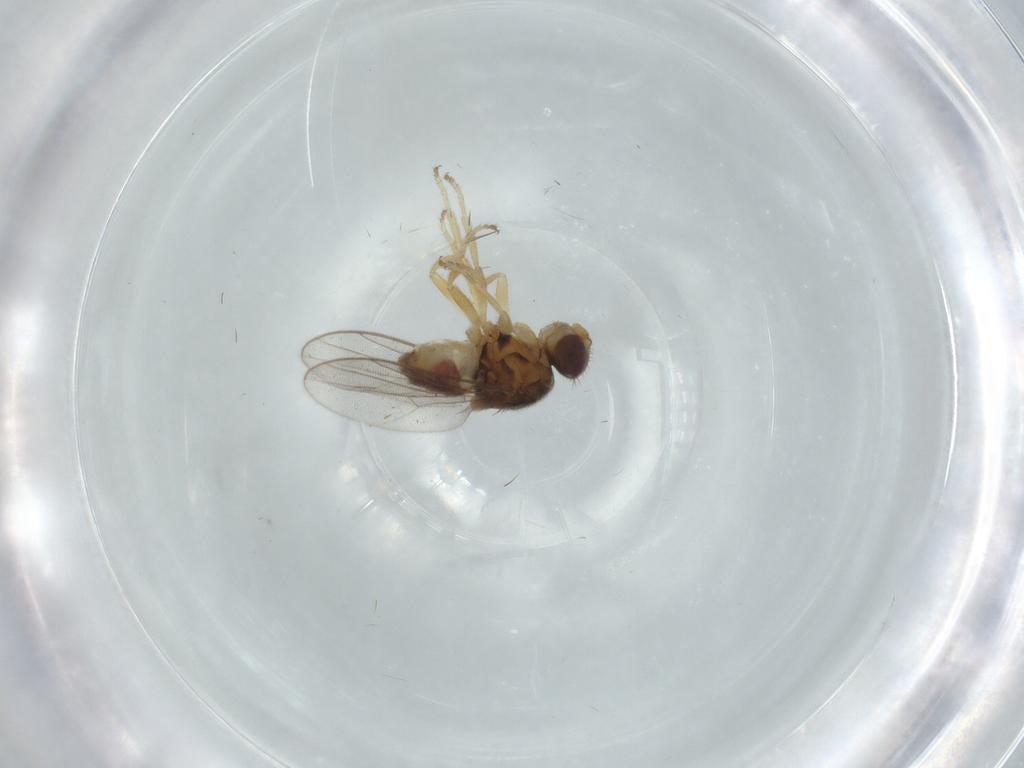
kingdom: Animalia
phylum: Arthropoda
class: Insecta
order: Diptera
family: Chloropidae
